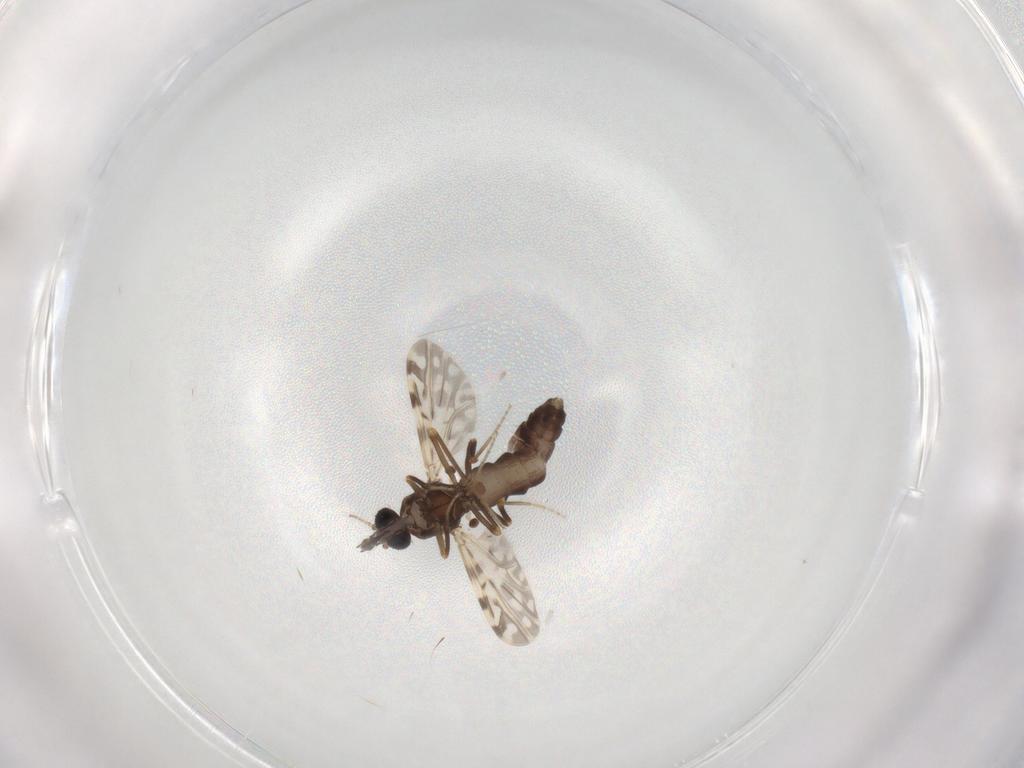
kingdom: Animalia
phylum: Arthropoda
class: Insecta
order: Diptera
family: Ceratopogonidae
